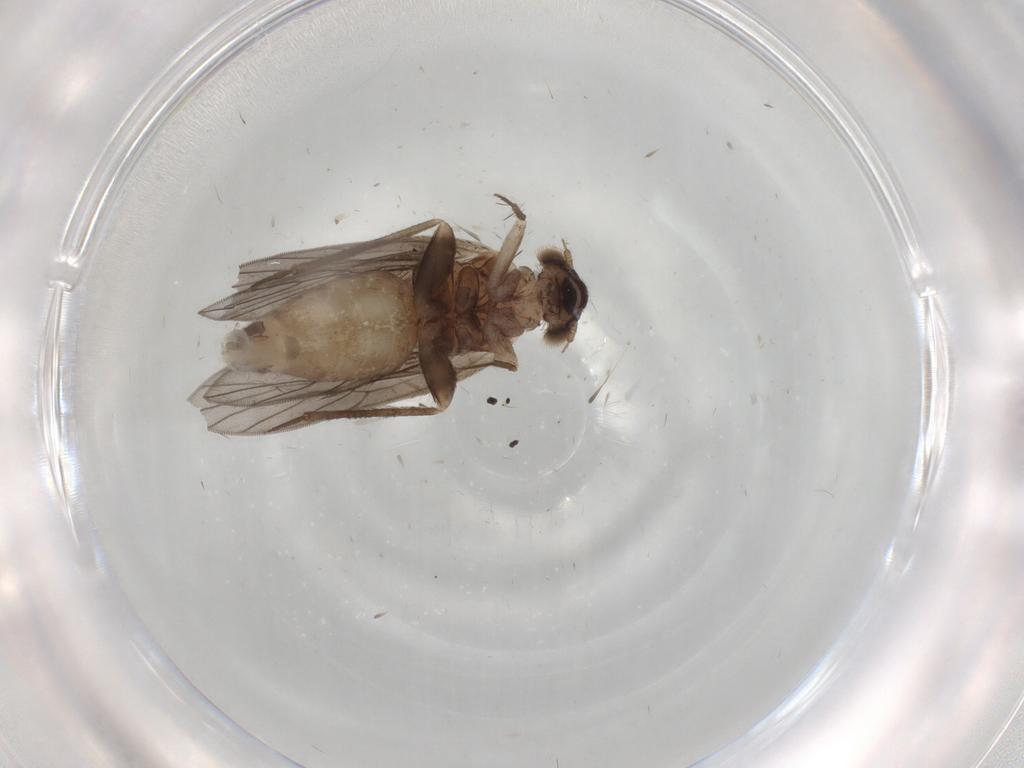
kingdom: Animalia
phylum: Arthropoda
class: Insecta
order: Psocodea
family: Lepidopsocidae
